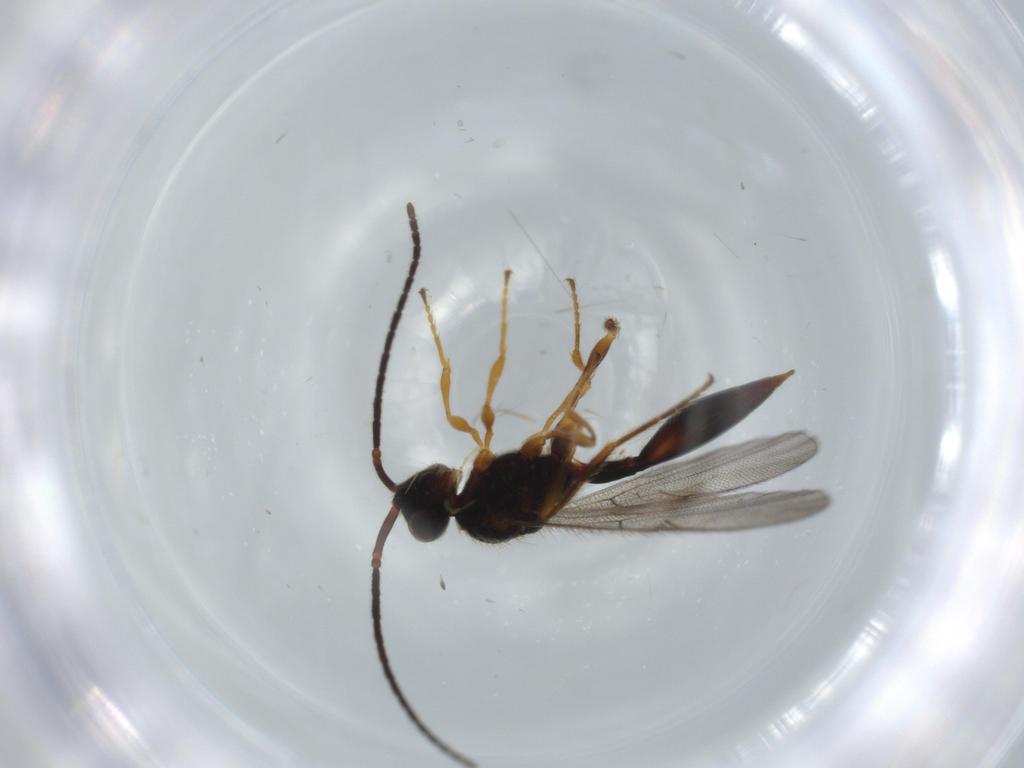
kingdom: Animalia
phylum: Arthropoda
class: Insecta
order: Hymenoptera
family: Diapriidae
